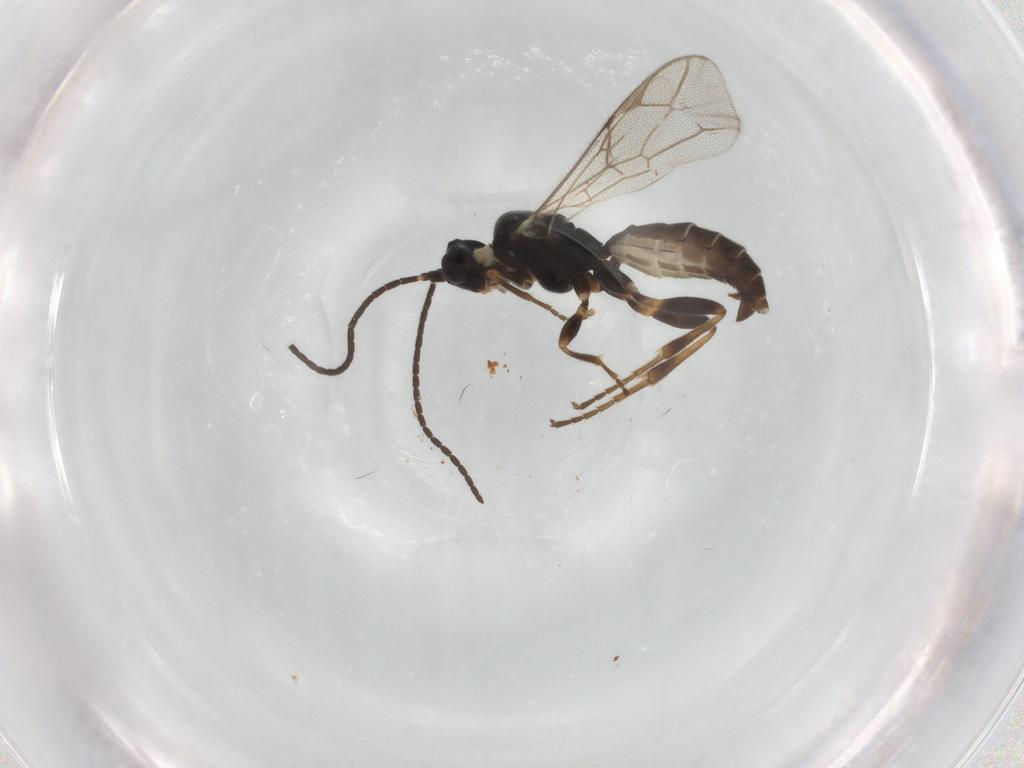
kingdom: Animalia
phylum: Arthropoda
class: Insecta
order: Hymenoptera
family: Ichneumonidae
